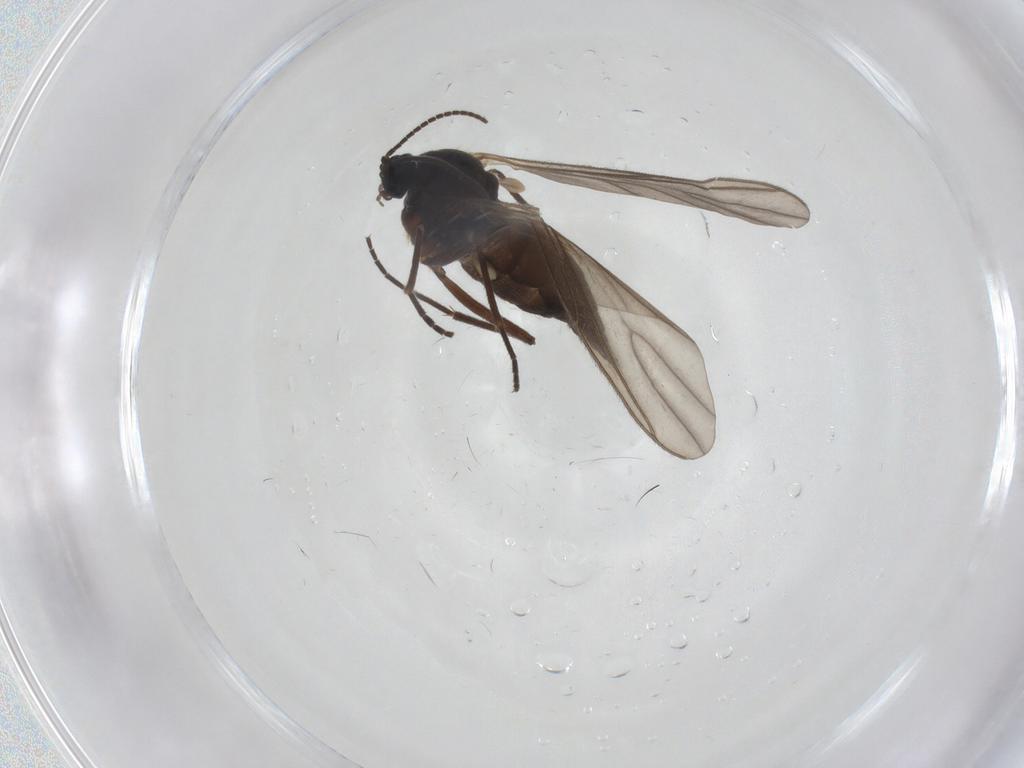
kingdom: Animalia
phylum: Arthropoda
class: Insecta
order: Diptera
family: Sciaridae
